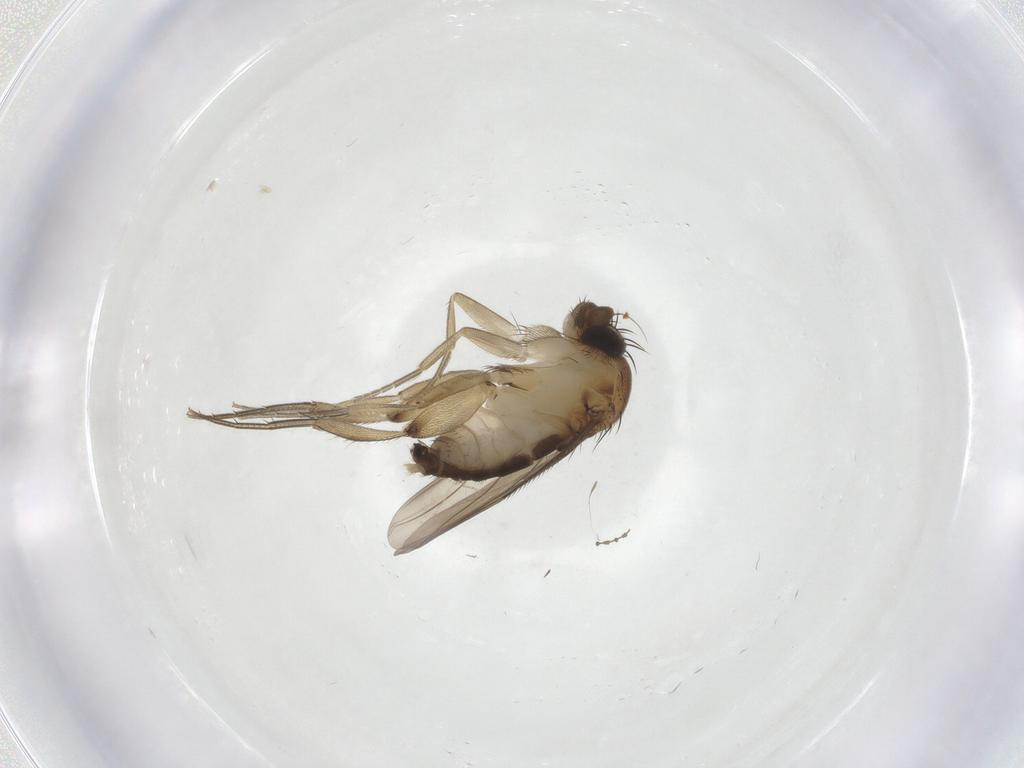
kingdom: Animalia
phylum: Arthropoda
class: Insecta
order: Diptera
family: Phoridae
